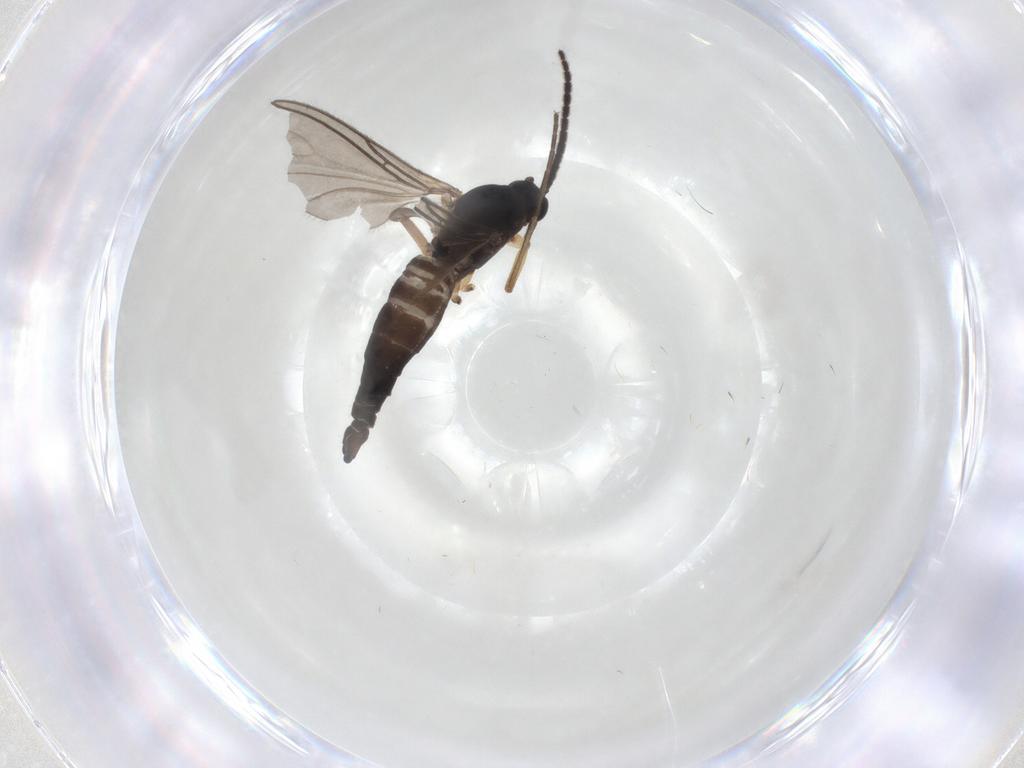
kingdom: Animalia
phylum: Arthropoda
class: Insecta
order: Diptera
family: Sciaridae
